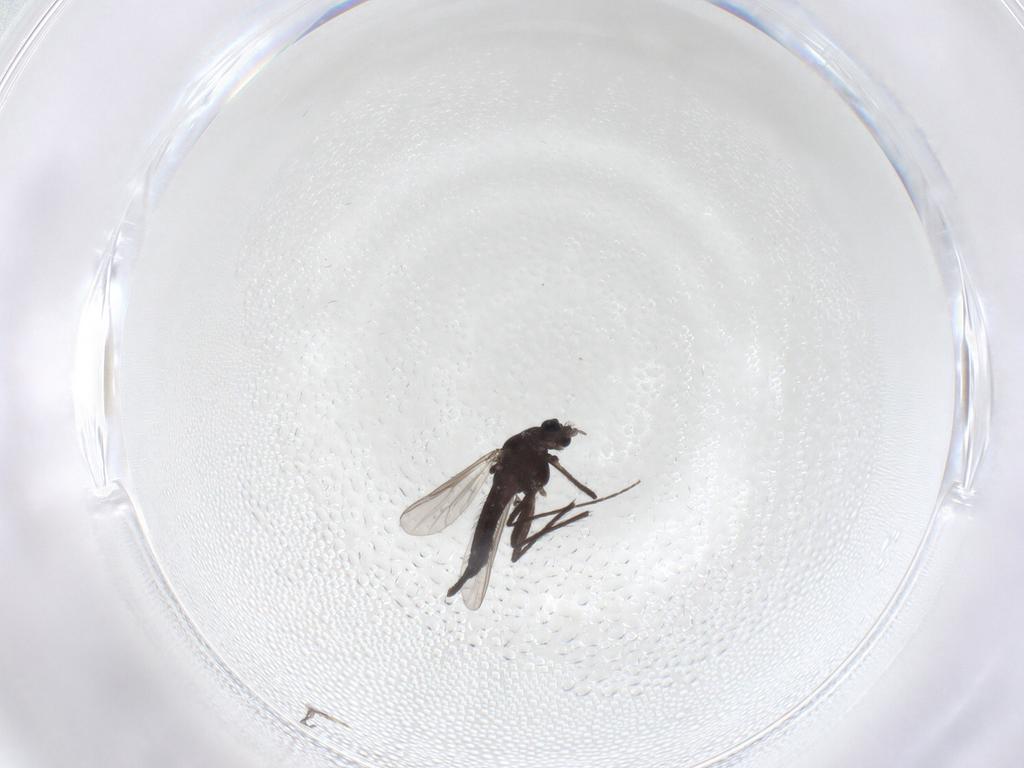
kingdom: Animalia
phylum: Arthropoda
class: Insecta
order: Diptera
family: Chironomidae
